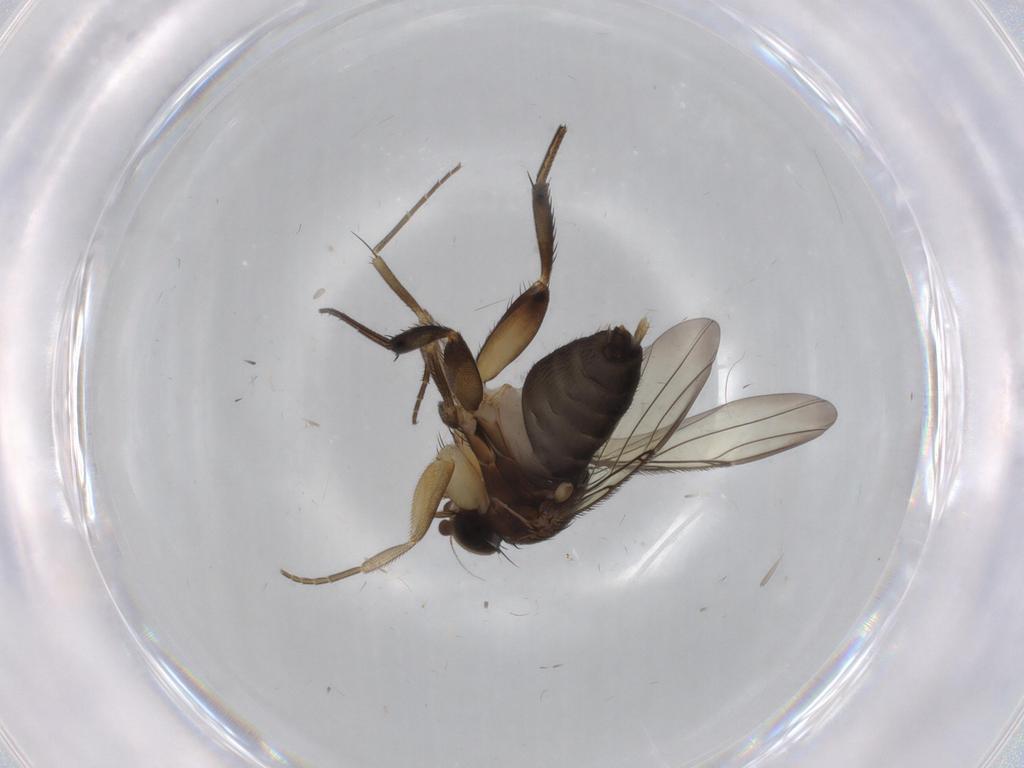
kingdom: Animalia
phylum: Arthropoda
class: Insecta
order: Diptera
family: Phoridae
